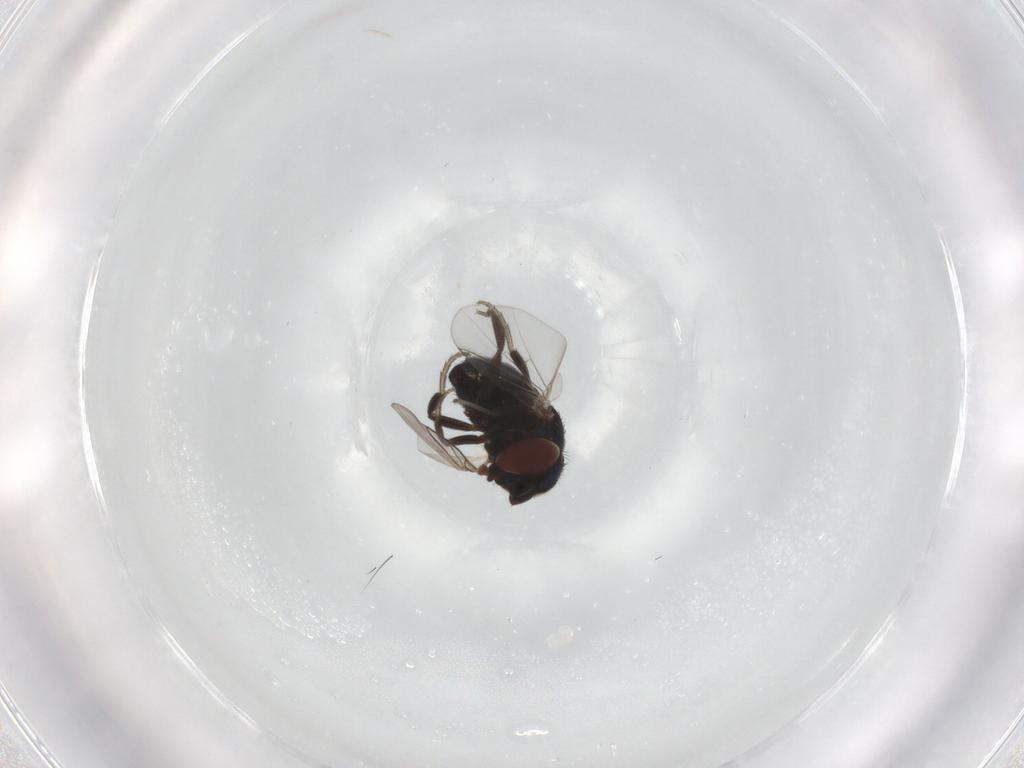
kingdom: Animalia
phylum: Arthropoda
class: Insecta
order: Diptera
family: Cryptochetidae
